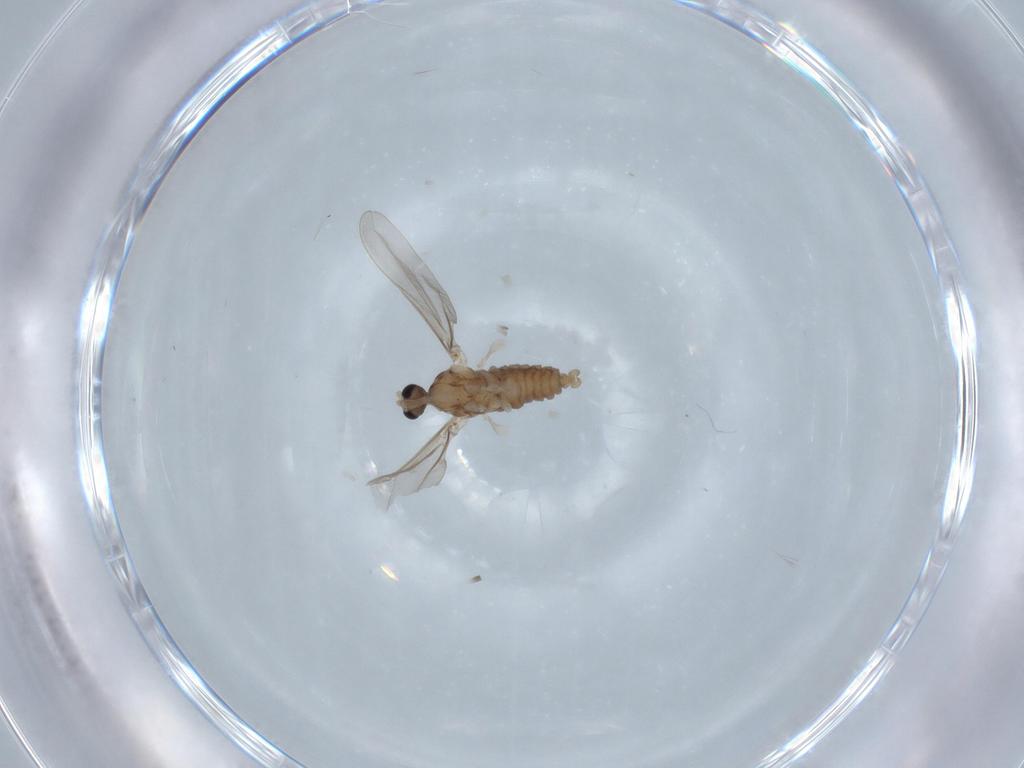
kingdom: Animalia
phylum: Arthropoda
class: Insecta
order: Diptera
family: Cecidomyiidae
